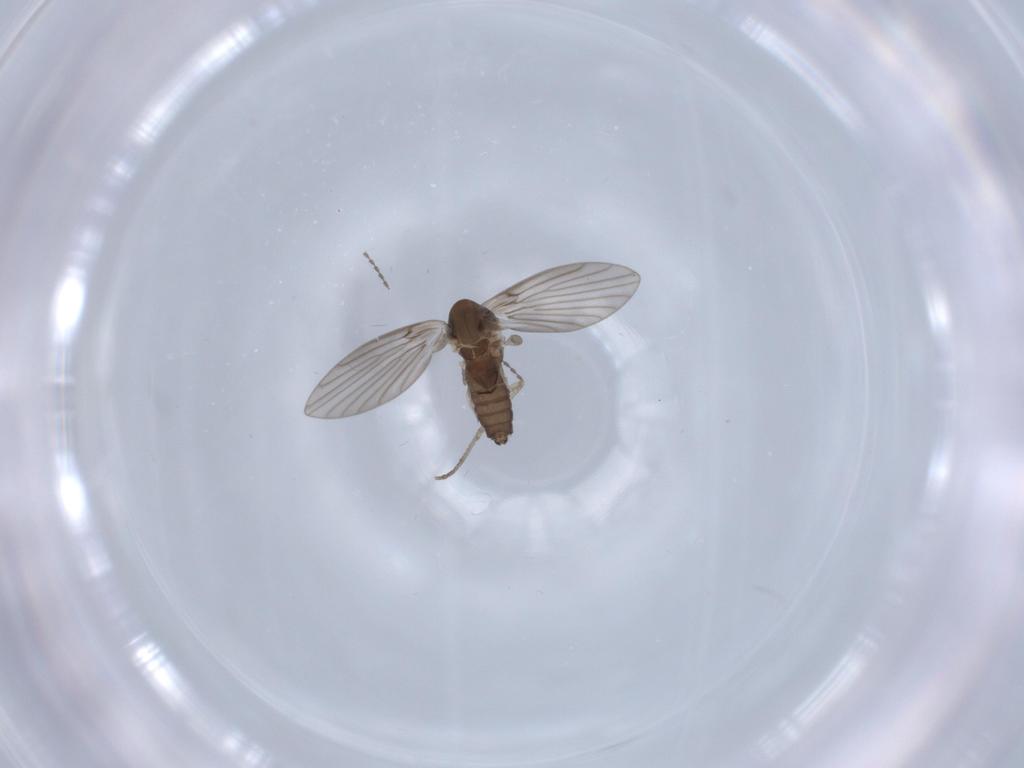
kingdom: Animalia
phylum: Arthropoda
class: Insecta
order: Diptera
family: Psychodidae
